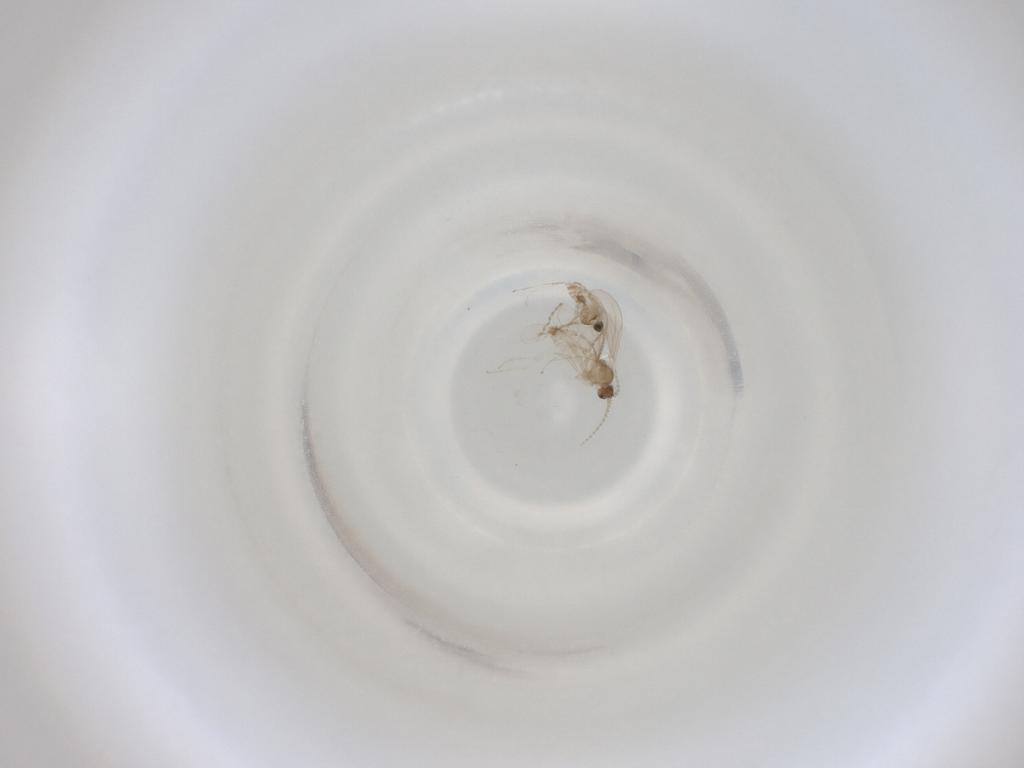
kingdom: Animalia
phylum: Arthropoda
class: Insecta
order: Diptera
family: Cecidomyiidae
